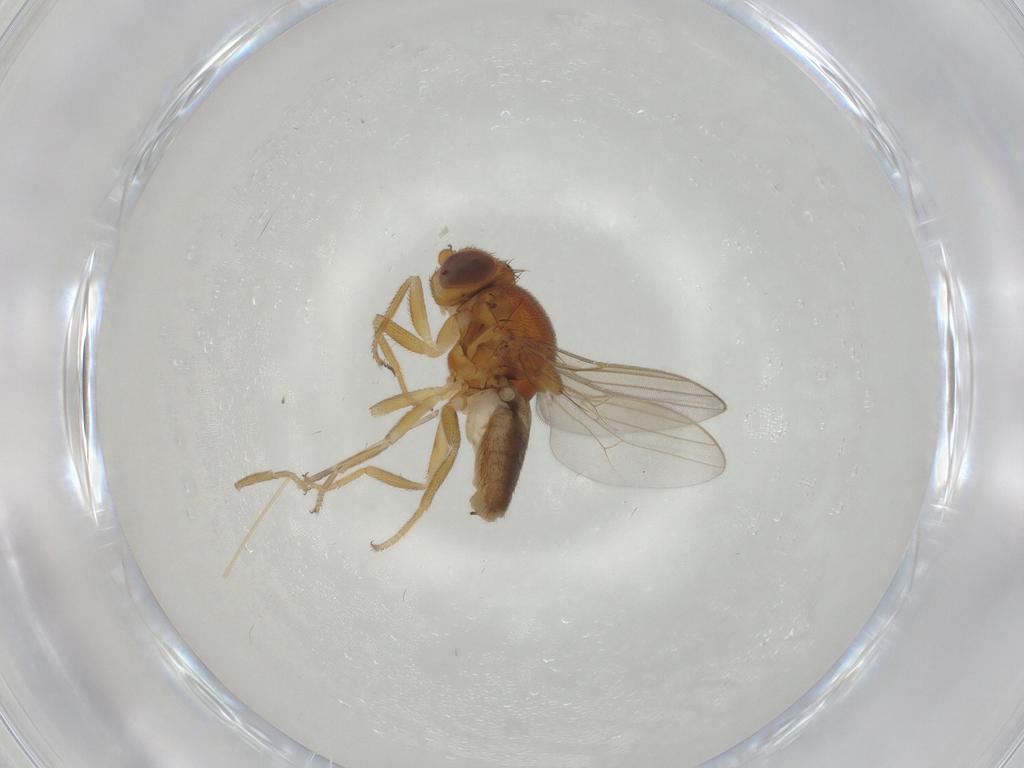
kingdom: Animalia
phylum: Arthropoda
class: Insecta
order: Diptera
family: Chloropidae
